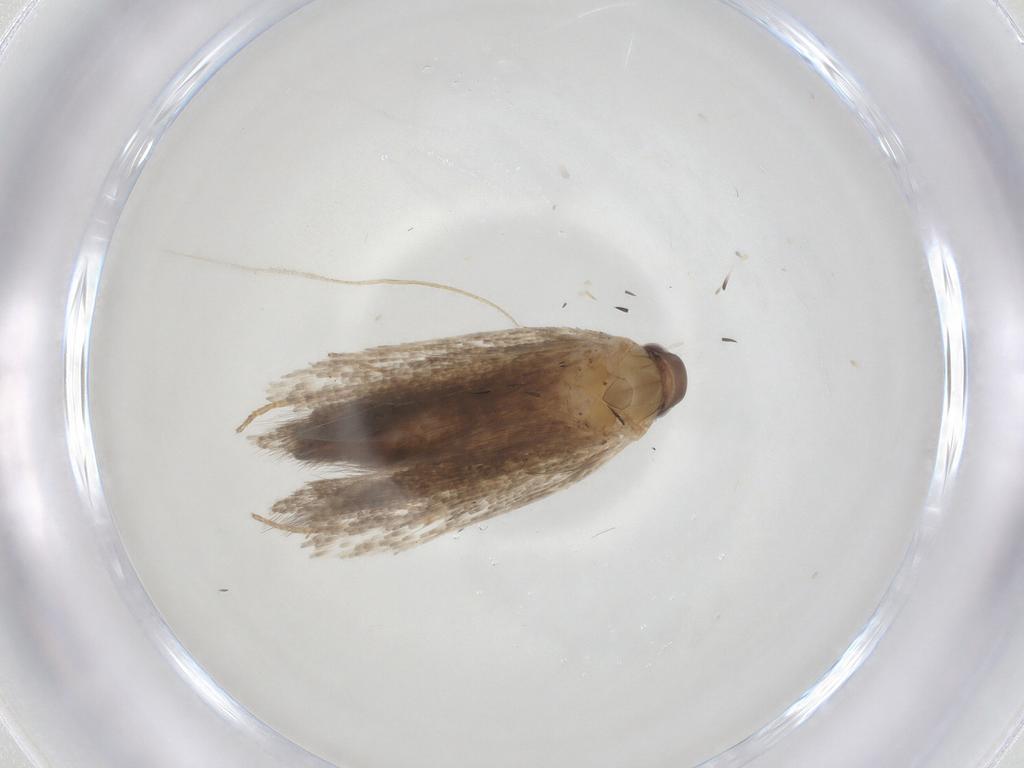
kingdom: Animalia
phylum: Arthropoda
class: Insecta
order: Lepidoptera
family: Gelechiidae
